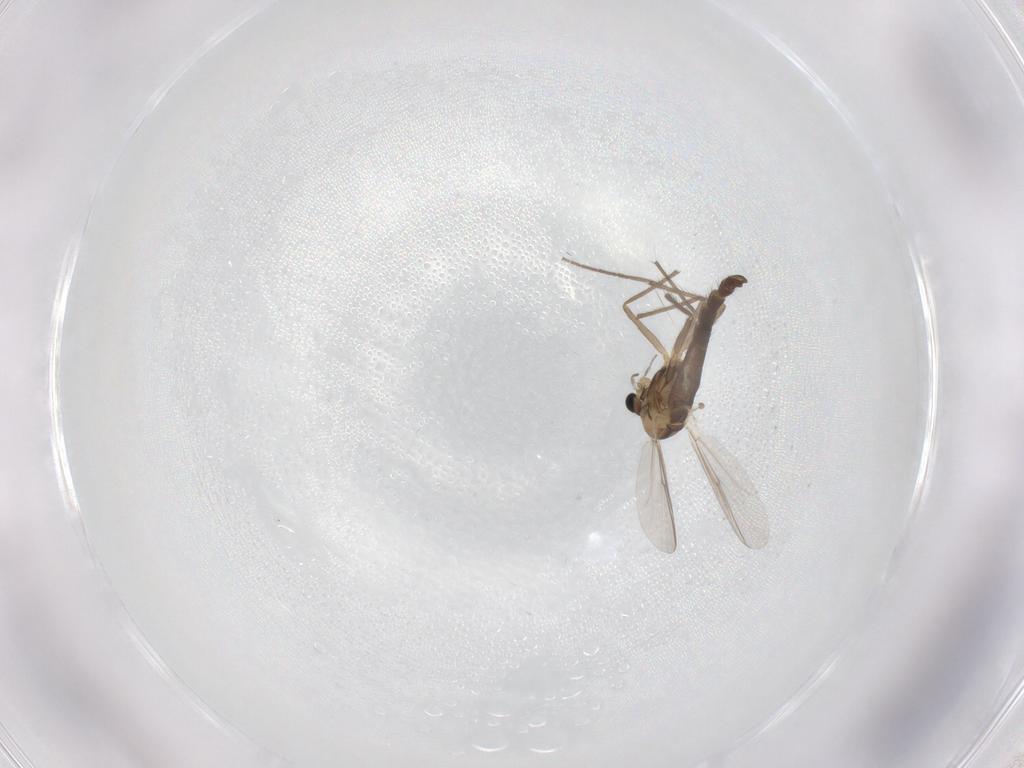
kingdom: Animalia
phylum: Arthropoda
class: Insecta
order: Diptera
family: Chironomidae
